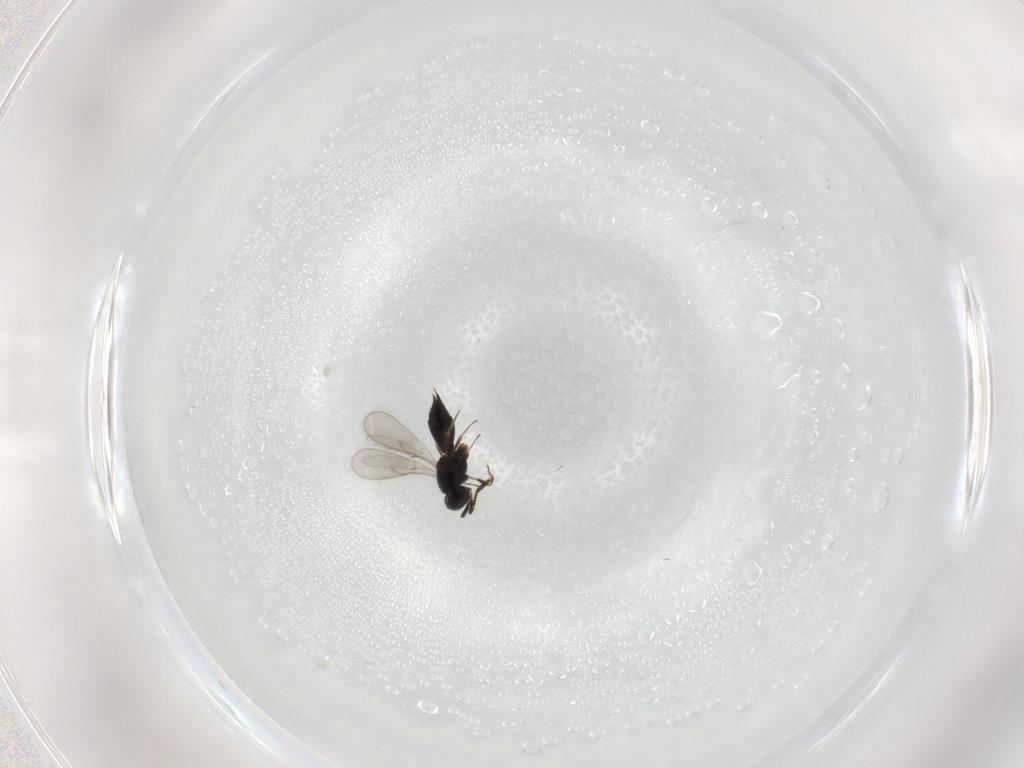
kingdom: Animalia
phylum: Arthropoda
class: Insecta
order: Hymenoptera
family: Scelionidae
